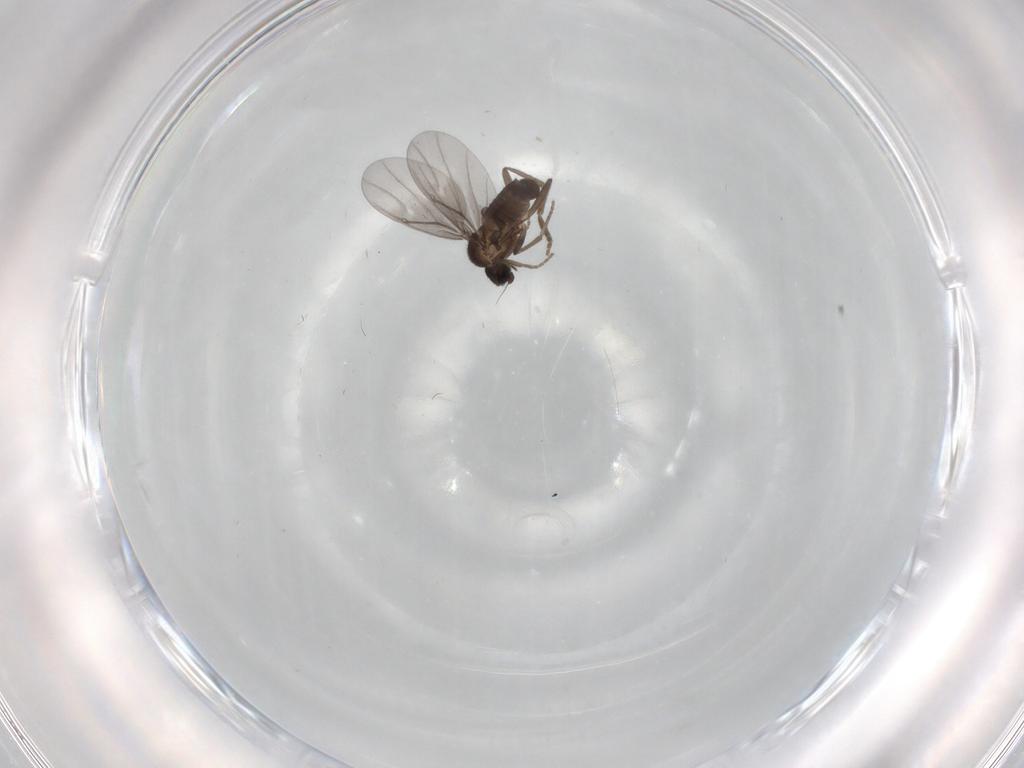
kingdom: Animalia
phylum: Arthropoda
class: Insecta
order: Diptera
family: Phoridae
